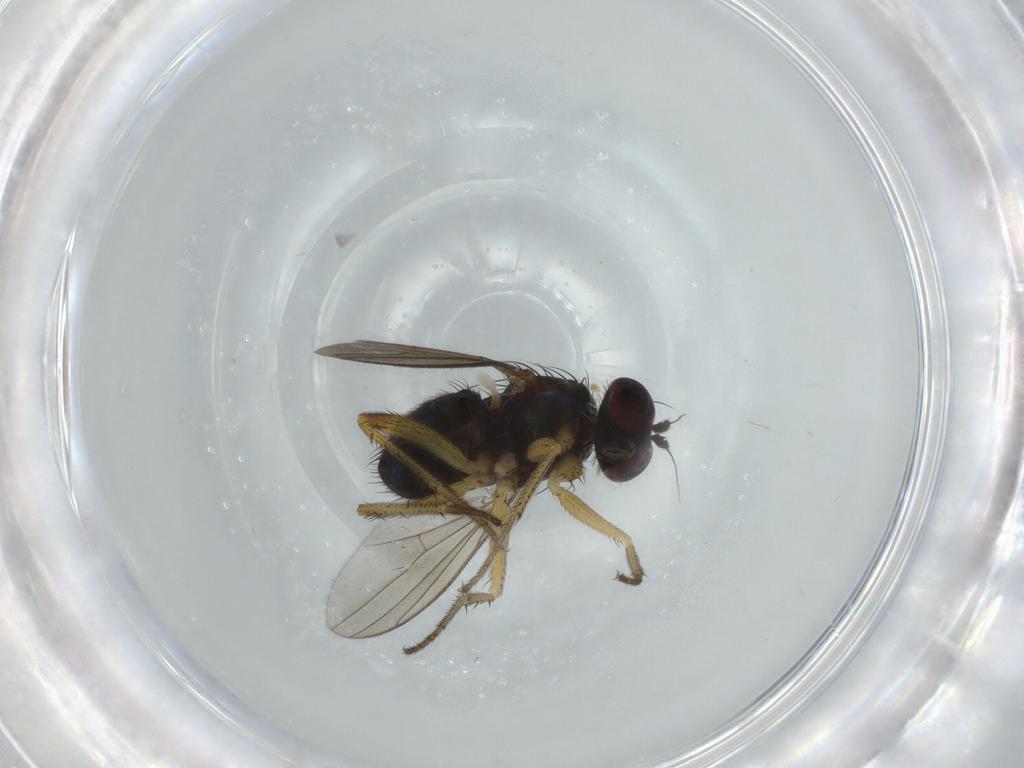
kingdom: Animalia
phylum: Arthropoda
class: Insecta
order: Diptera
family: Dolichopodidae
